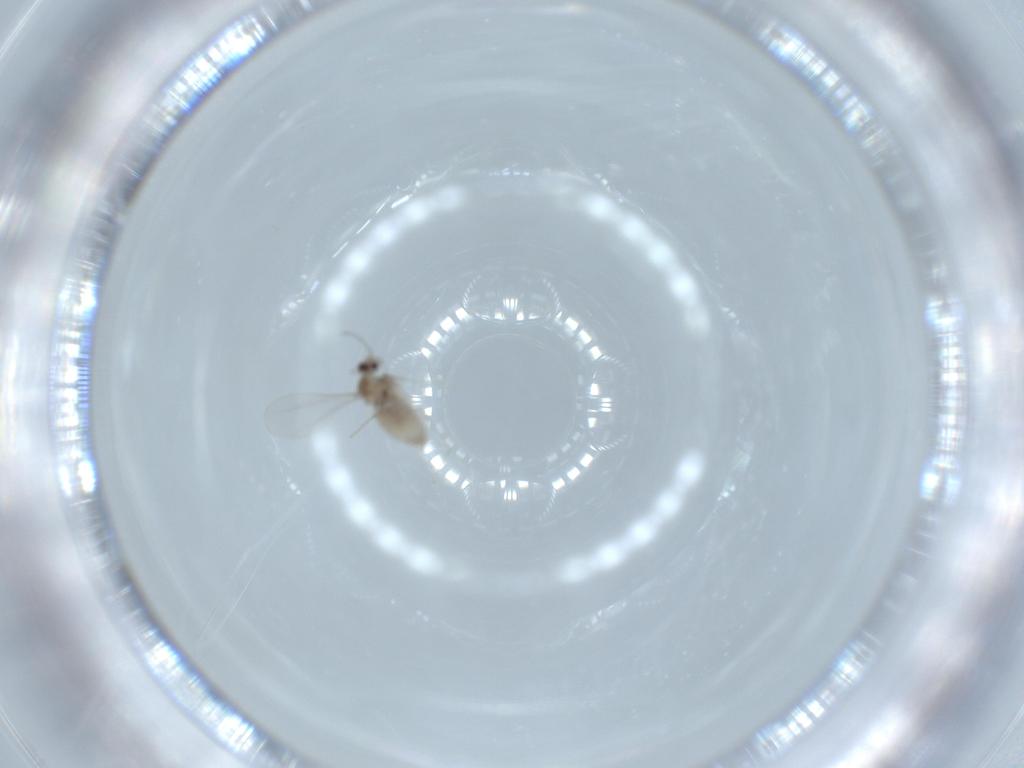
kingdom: Animalia
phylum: Arthropoda
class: Insecta
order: Diptera
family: Cecidomyiidae
